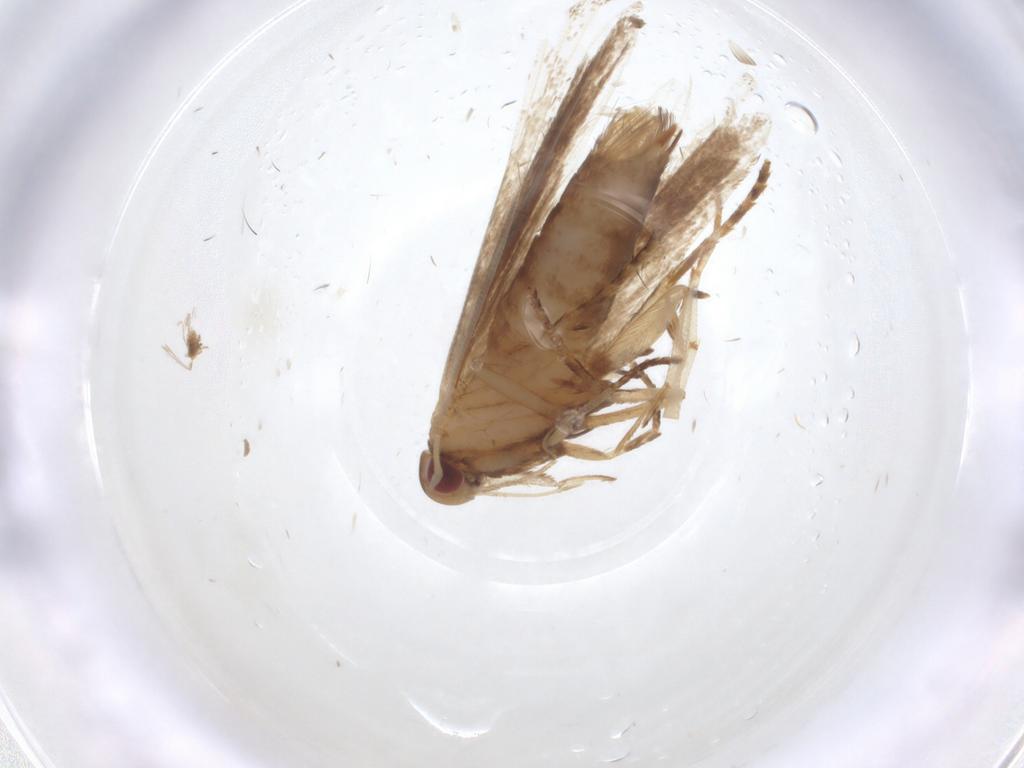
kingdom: Animalia
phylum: Arthropoda
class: Insecta
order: Lepidoptera
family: Gelechiidae
